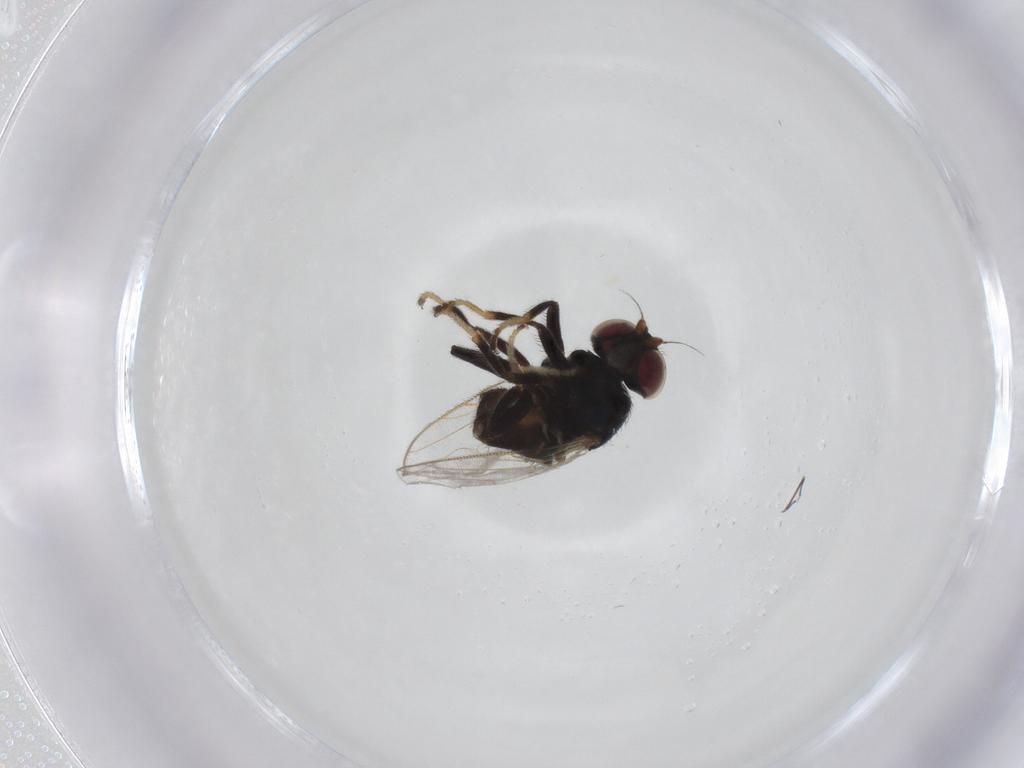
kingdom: Animalia
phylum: Arthropoda
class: Insecta
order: Diptera
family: Chloropidae
